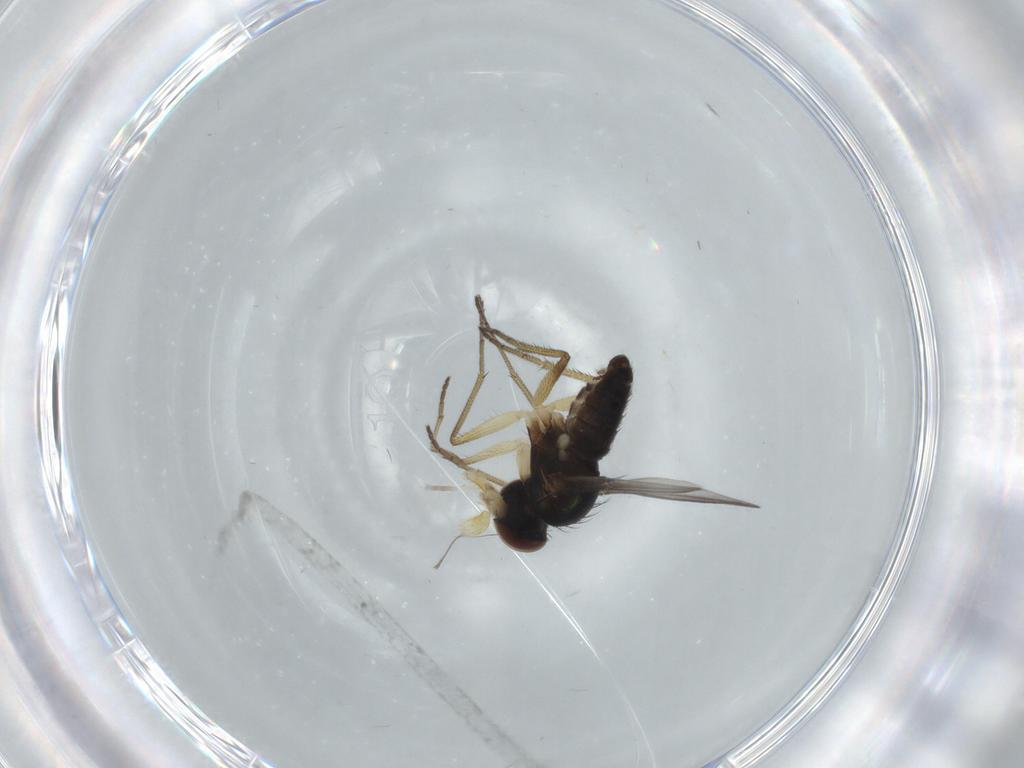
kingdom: Animalia
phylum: Arthropoda
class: Insecta
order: Diptera
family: Dolichopodidae
